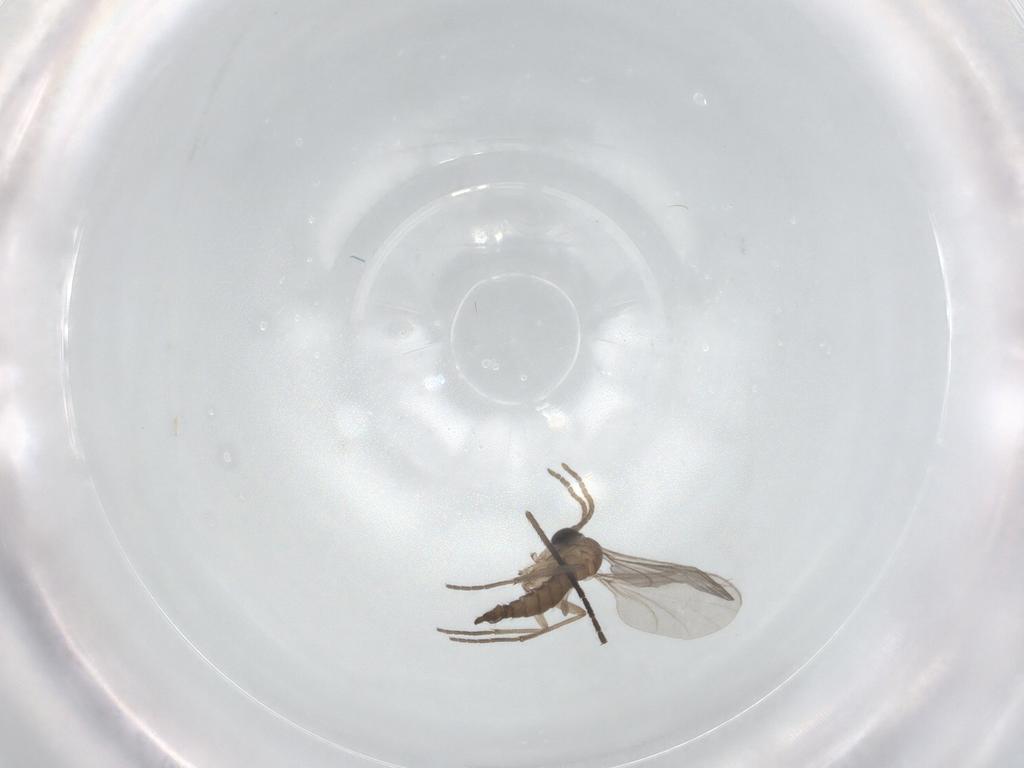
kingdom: Animalia
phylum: Arthropoda
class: Insecta
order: Diptera
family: Sciaridae
